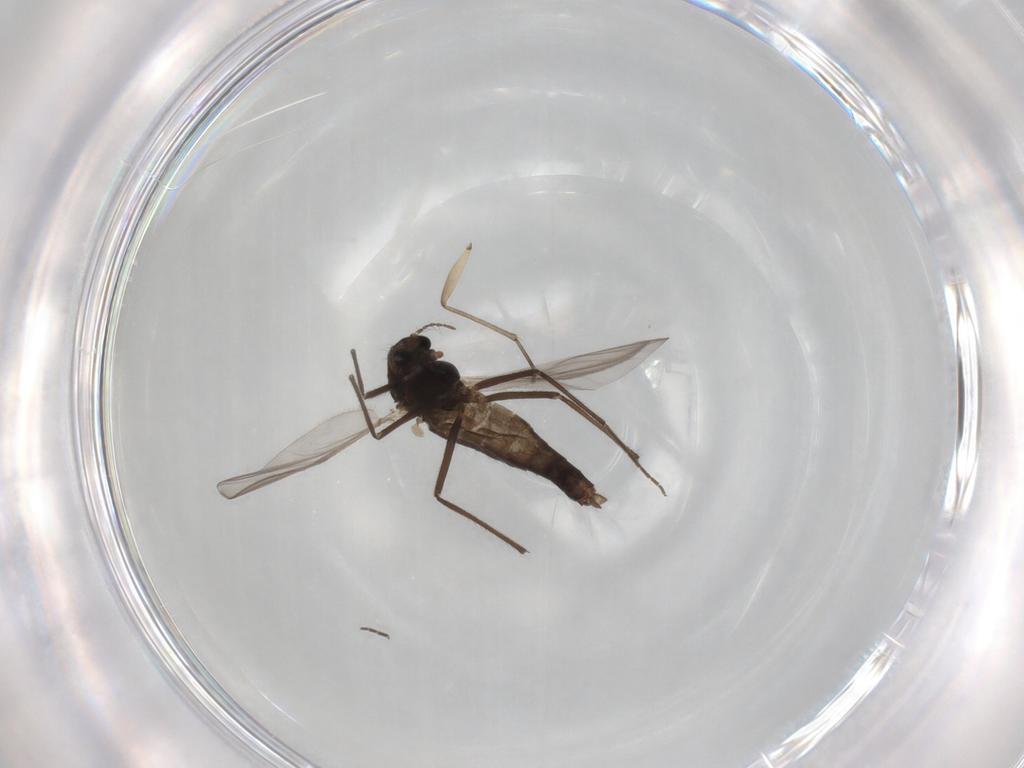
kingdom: Animalia
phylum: Arthropoda
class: Insecta
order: Diptera
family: Chironomidae
